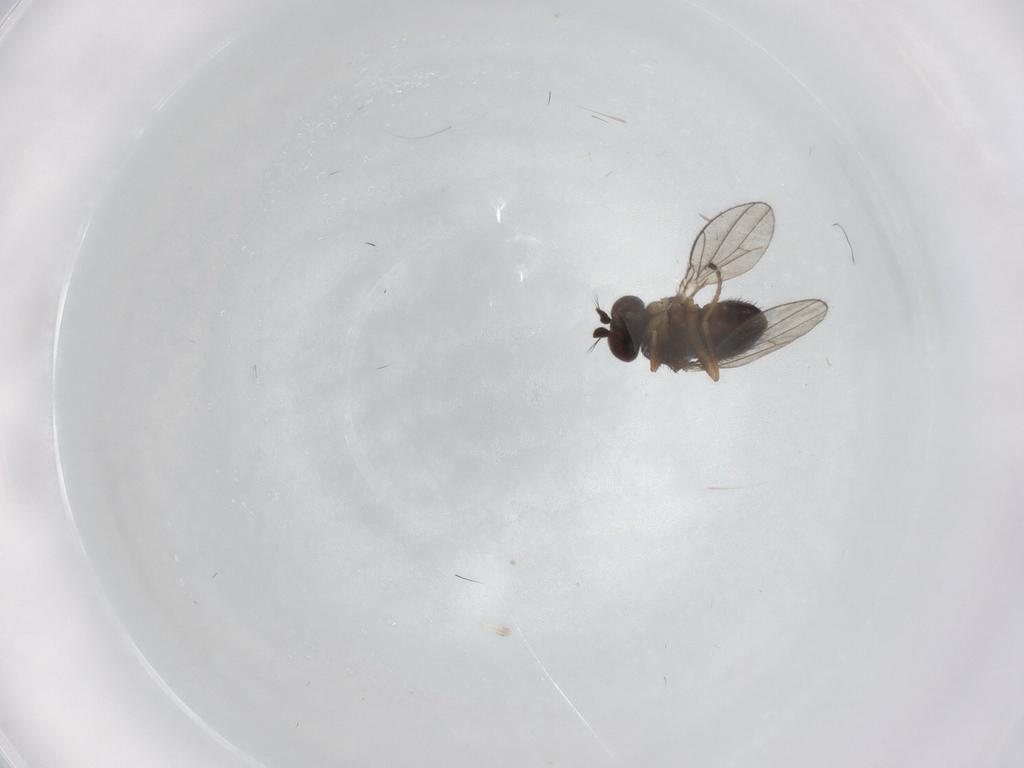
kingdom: Animalia
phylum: Arthropoda
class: Insecta
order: Diptera
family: Ephydridae
